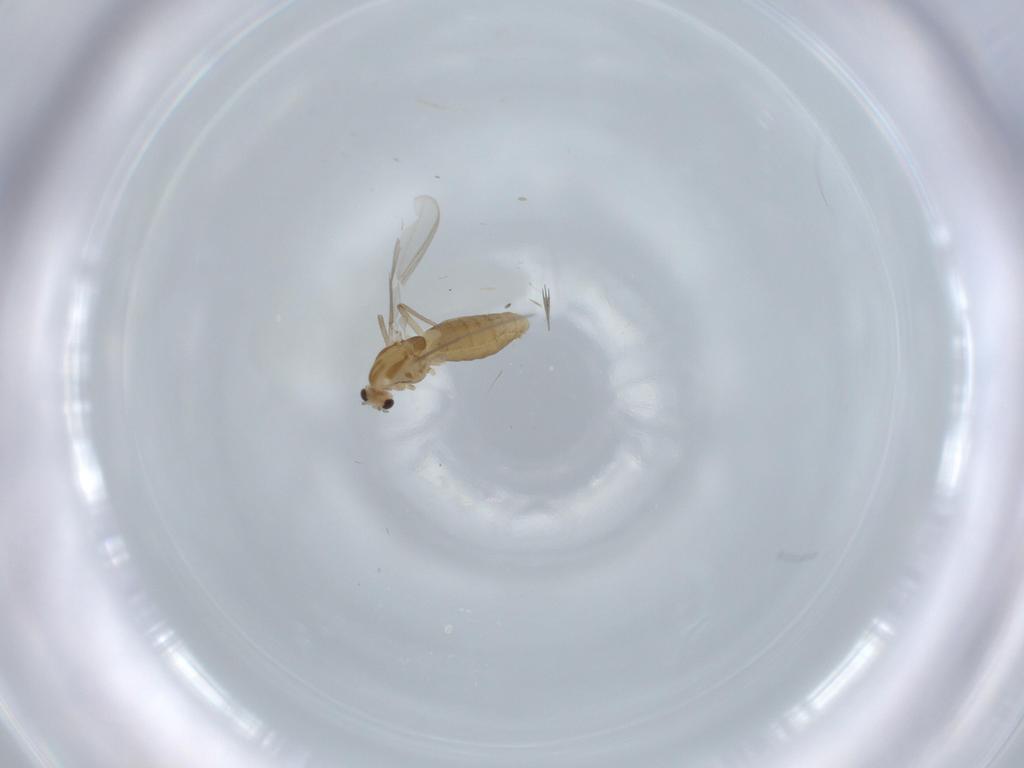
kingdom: Animalia
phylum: Arthropoda
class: Insecta
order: Diptera
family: Chironomidae
